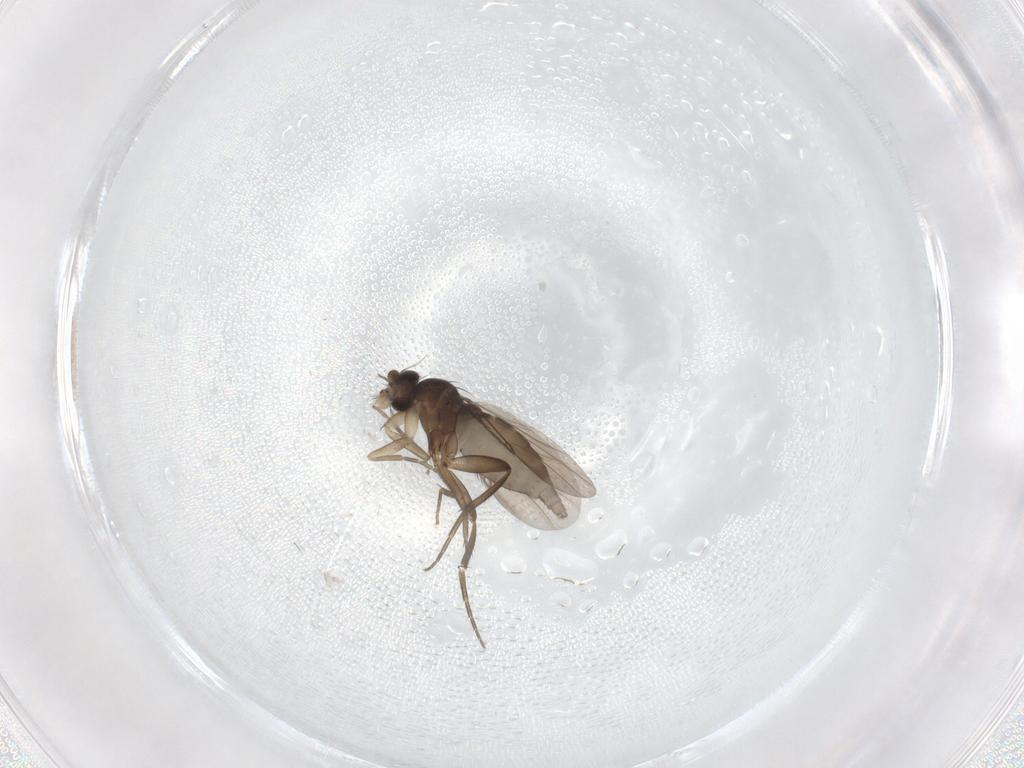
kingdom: Animalia
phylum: Arthropoda
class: Insecta
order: Diptera
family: Phoridae
